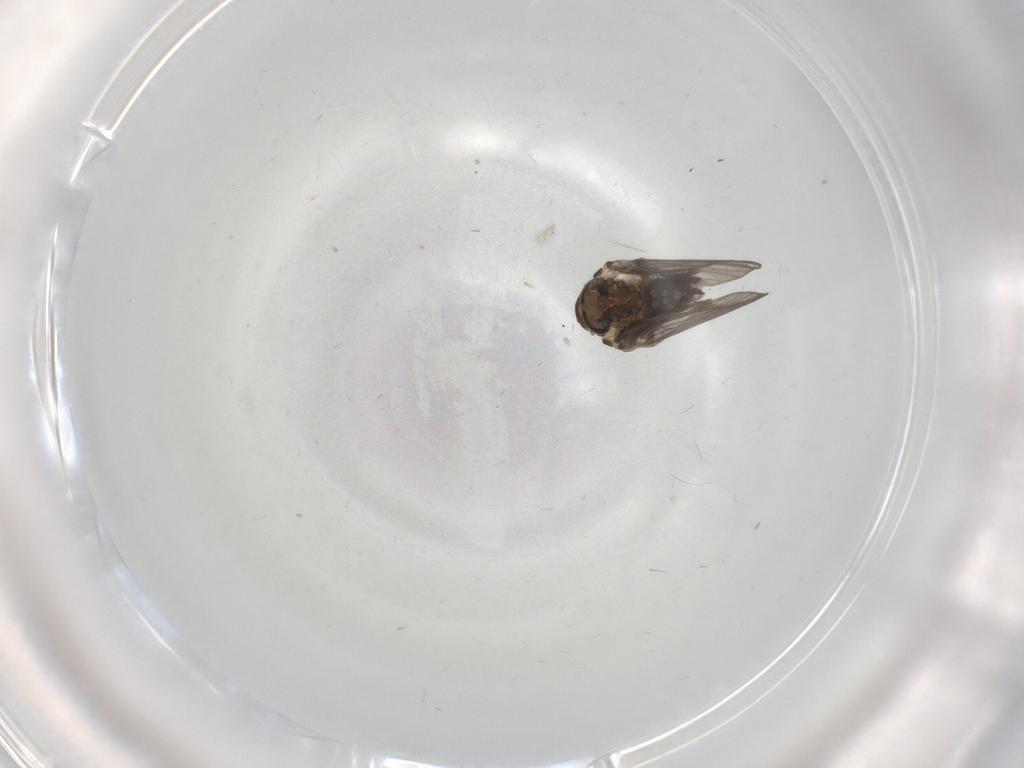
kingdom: Animalia
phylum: Arthropoda
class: Insecta
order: Diptera
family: Psychodidae
